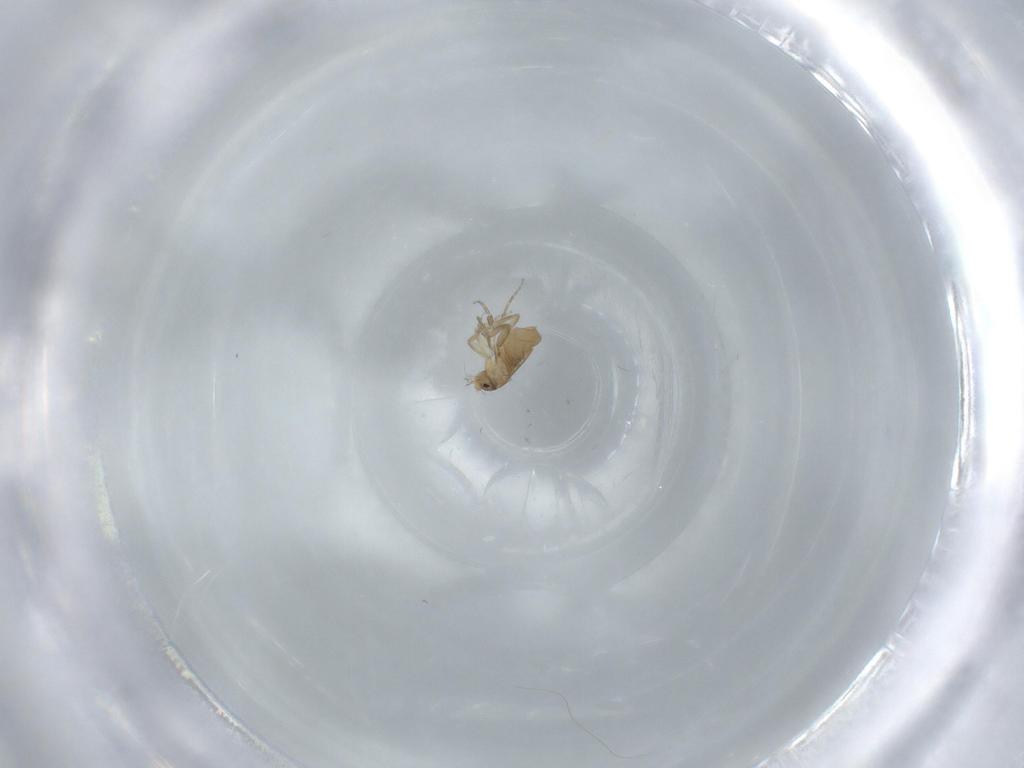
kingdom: Animalia
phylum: Arthropoda
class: Insecta
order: Diptera
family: Phoridae
